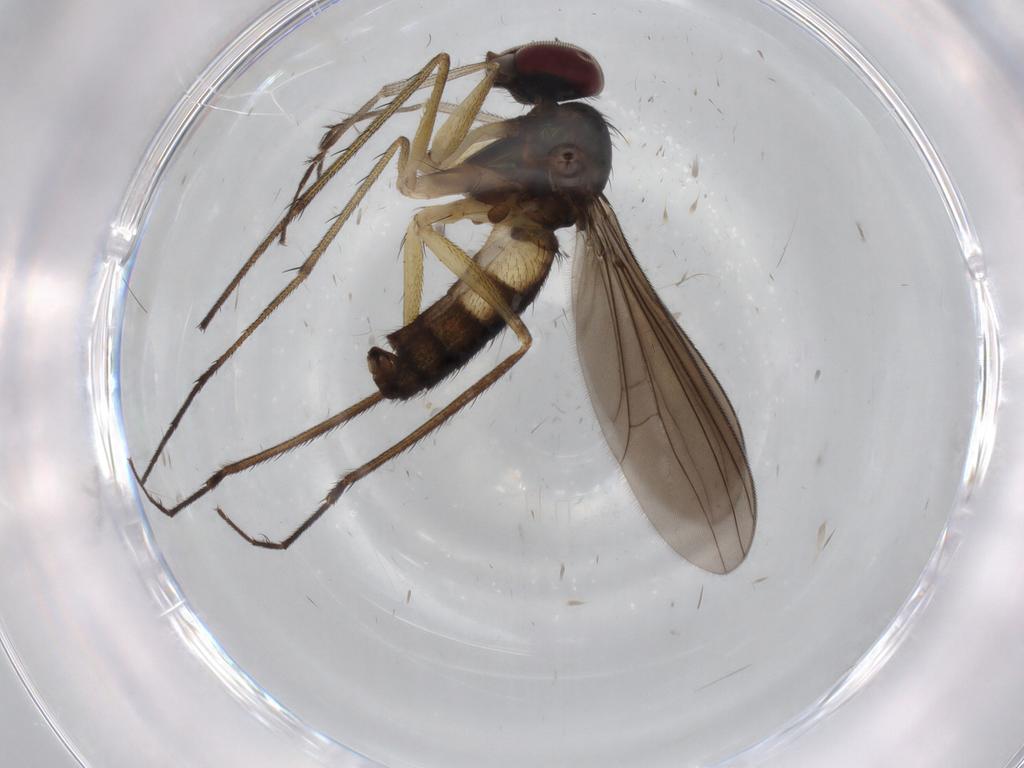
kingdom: Animalia
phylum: Arthropoda
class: Insecta
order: Diptera
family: Dolichopodidae
